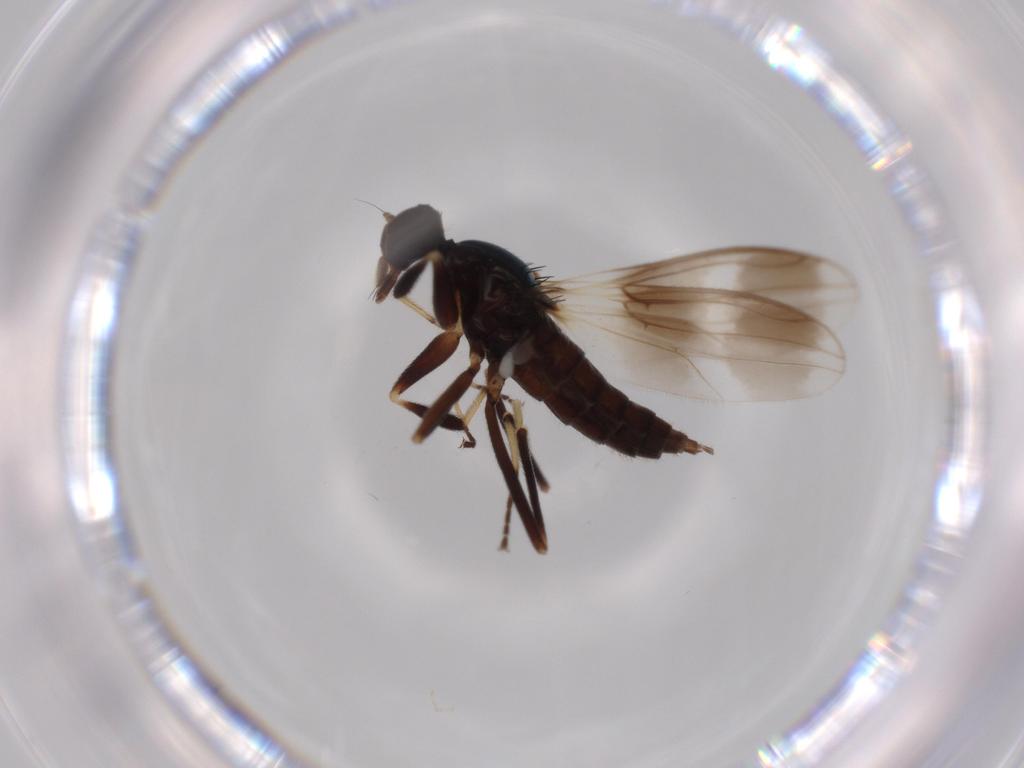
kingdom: Animalia
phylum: Arthropoda
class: Insecta
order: Diptera
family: Hybotidae
